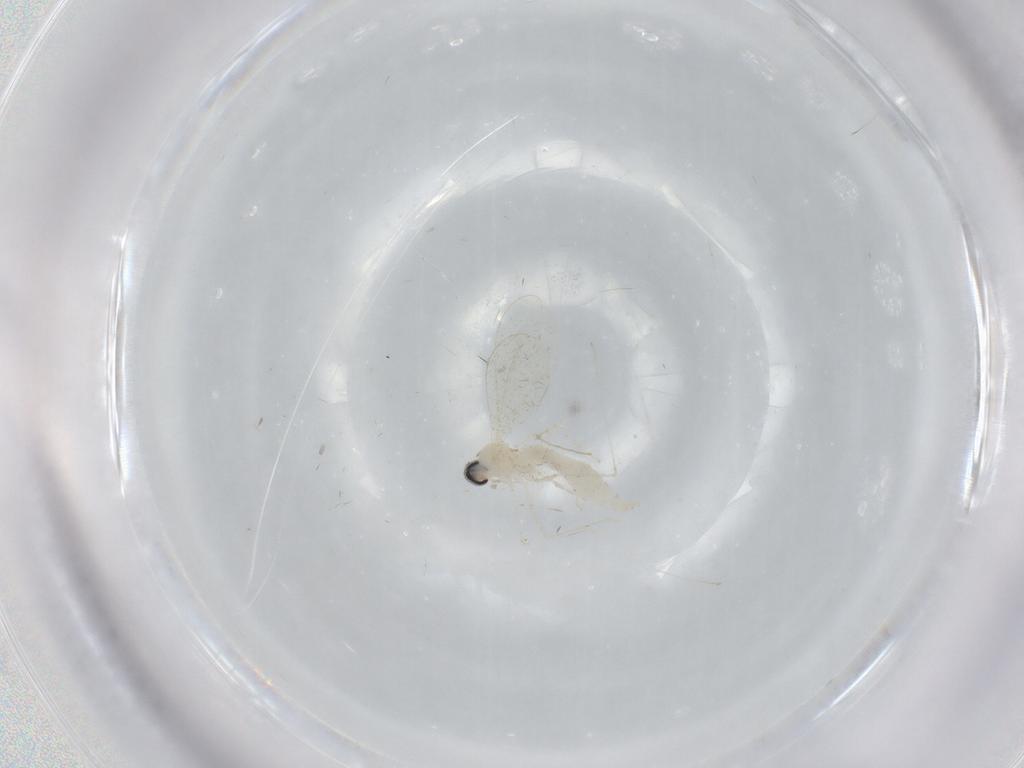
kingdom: Animalia
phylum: Arthropoda
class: Insecta
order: Diptera
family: Cecidomyiidae
